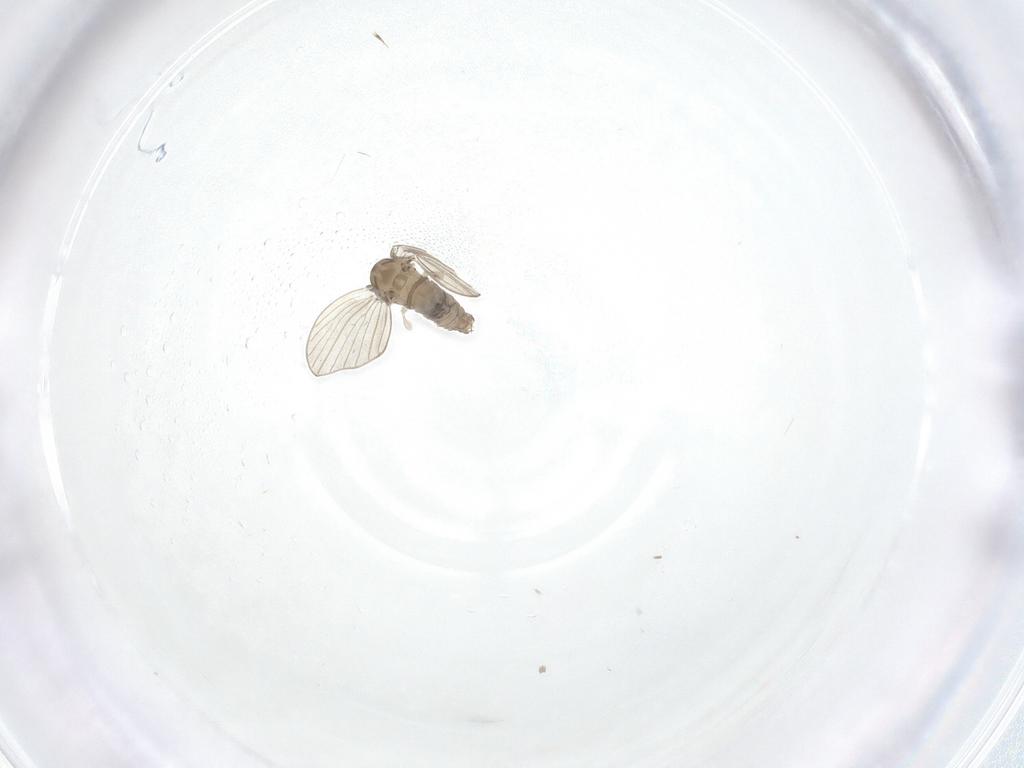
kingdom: Animalia
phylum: Arthropoda
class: Insecta
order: Diptera
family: Psychodidae
